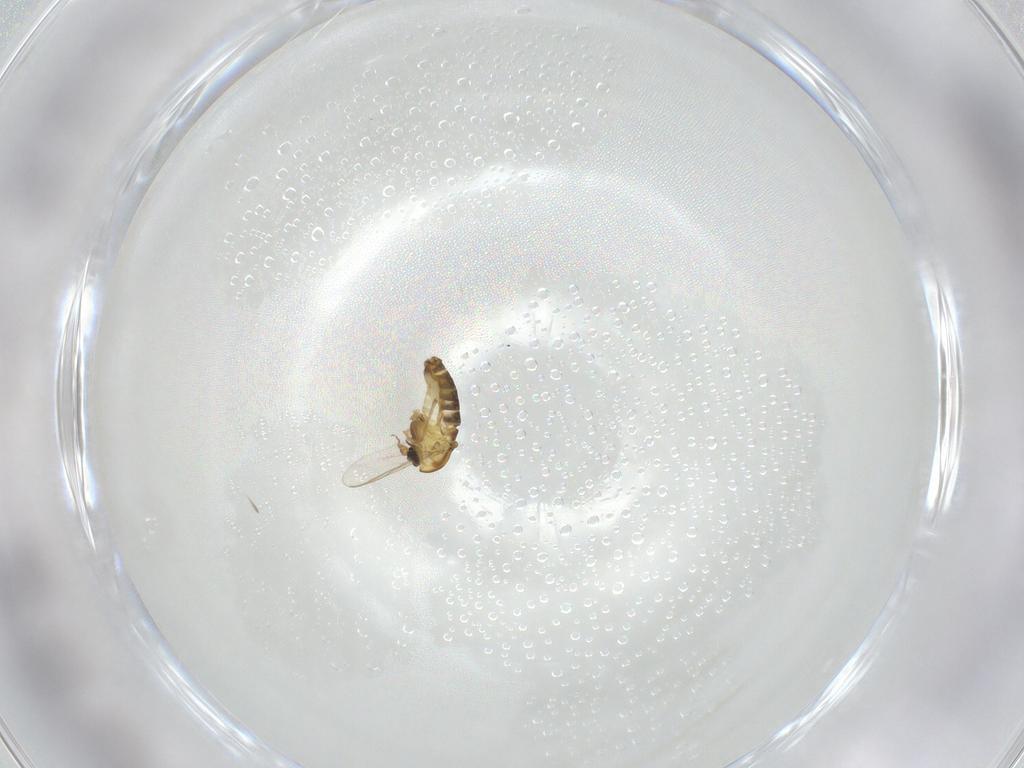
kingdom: Animalia
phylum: Arthropoda
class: Insecta
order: Diptera
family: Chironomidae
